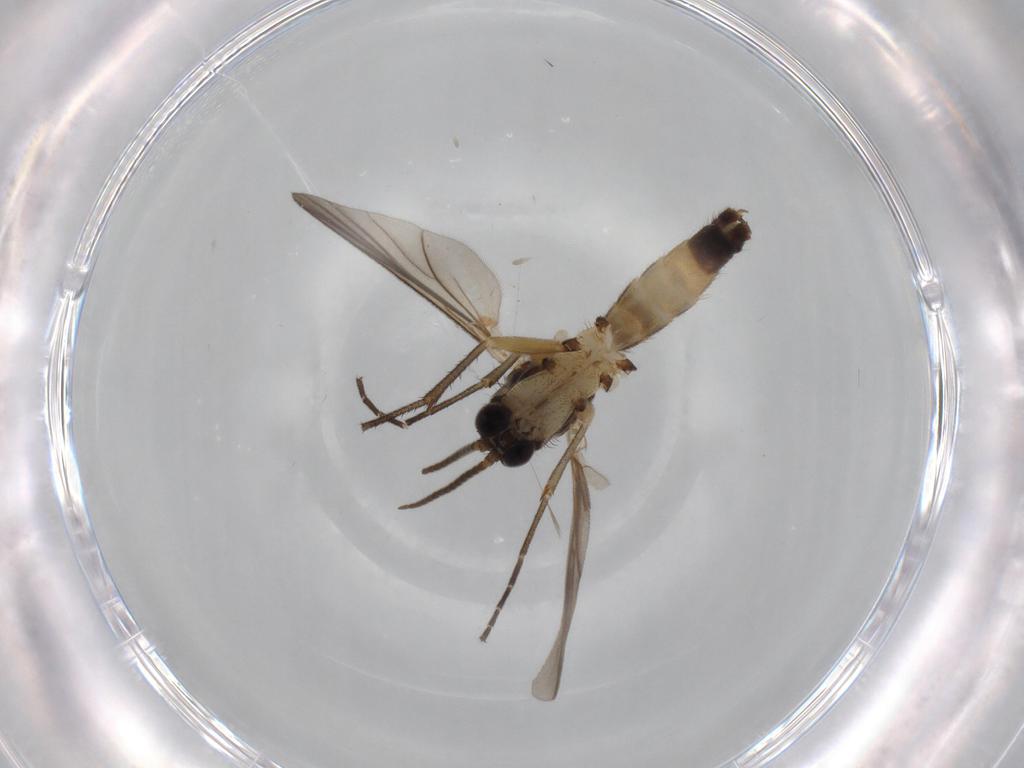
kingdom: Animalia
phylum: Arthropoda
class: Insecta
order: Diptera
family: Cecidomyiidae
